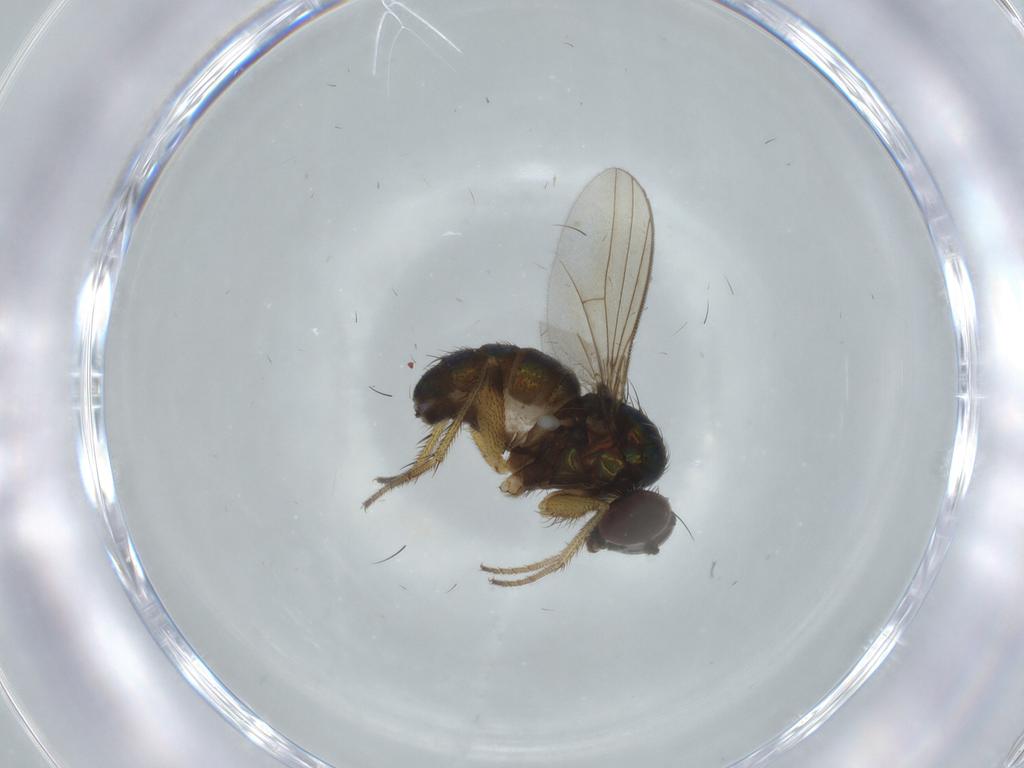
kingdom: Animalia
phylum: Arthropoda
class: Insecta
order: Diptera
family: Dolichopodidae
